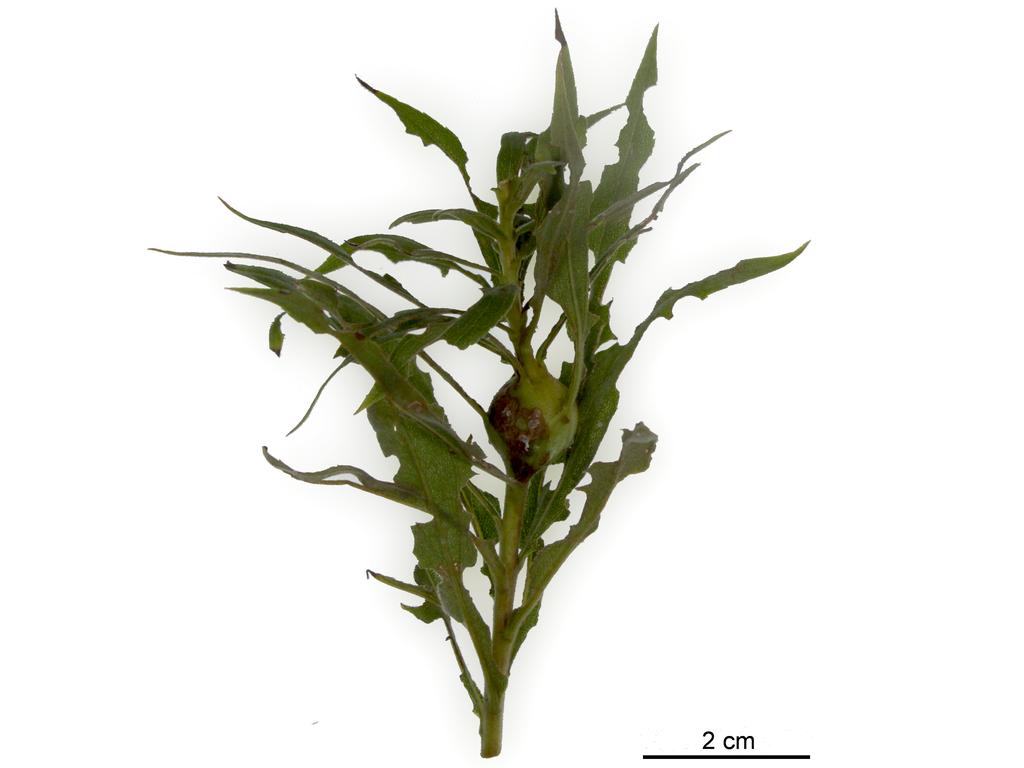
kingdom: Animalia
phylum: Arthropoda
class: Insecta
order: Hymenoptera
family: Torymidae
